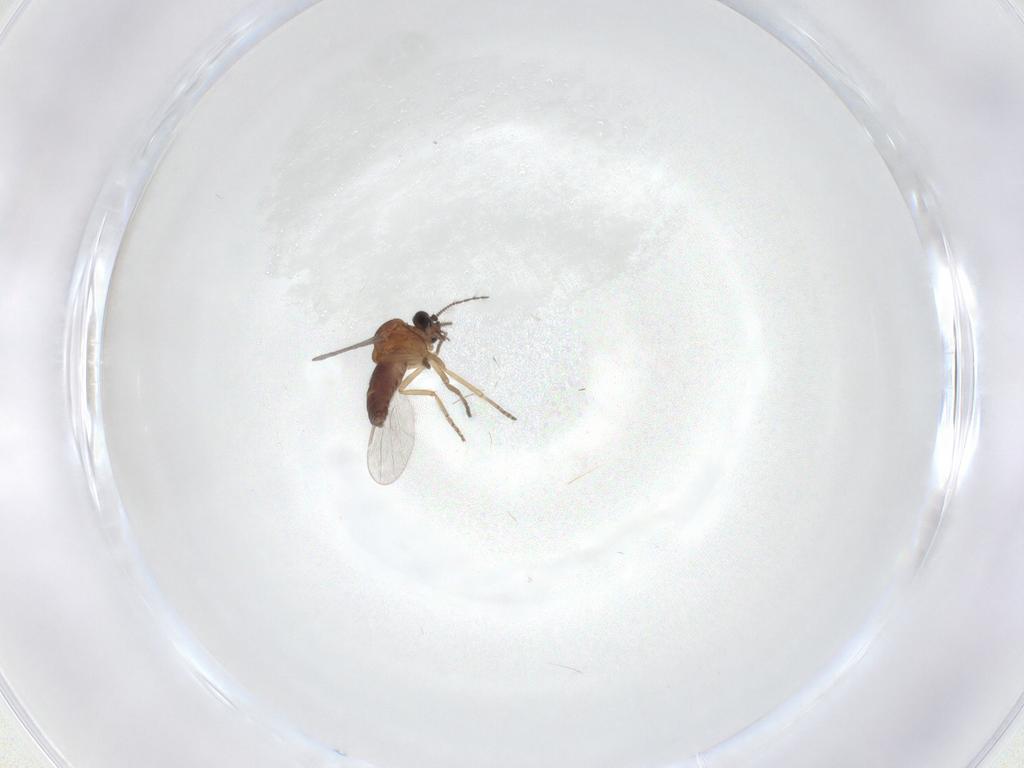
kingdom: Animalia
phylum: Arthropoda
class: Insecta
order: Diptera
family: Ceratopogonidae
